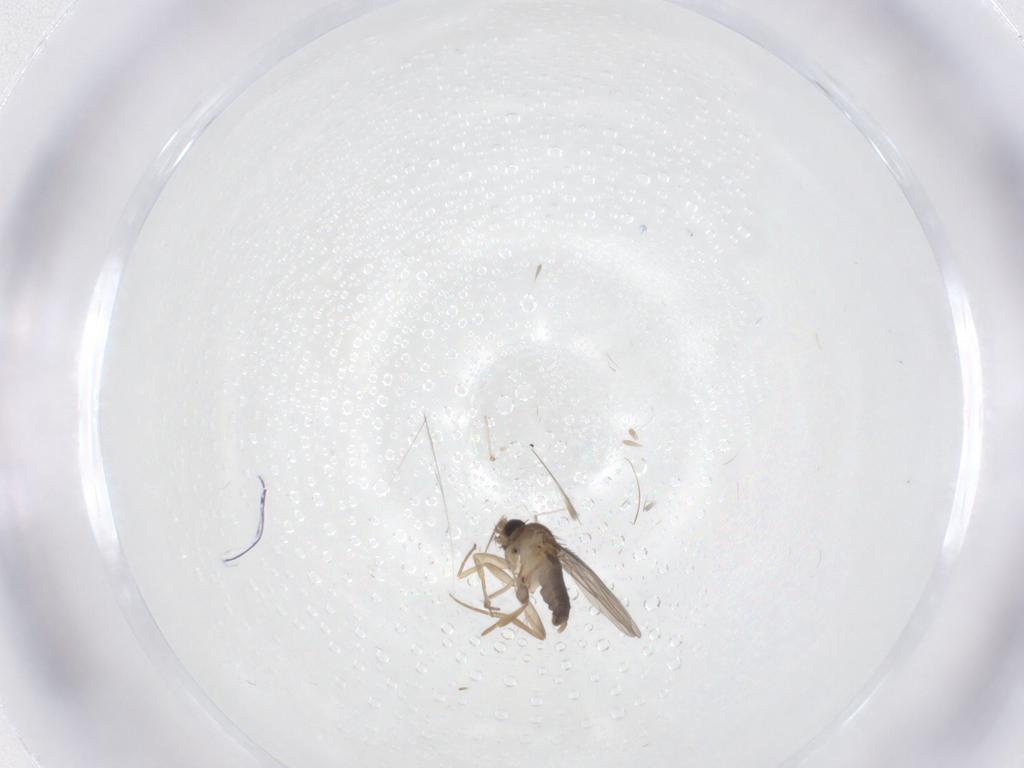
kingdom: Animalia
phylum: Arthropoda
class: Insecta
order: Diptera
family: Phoridae
